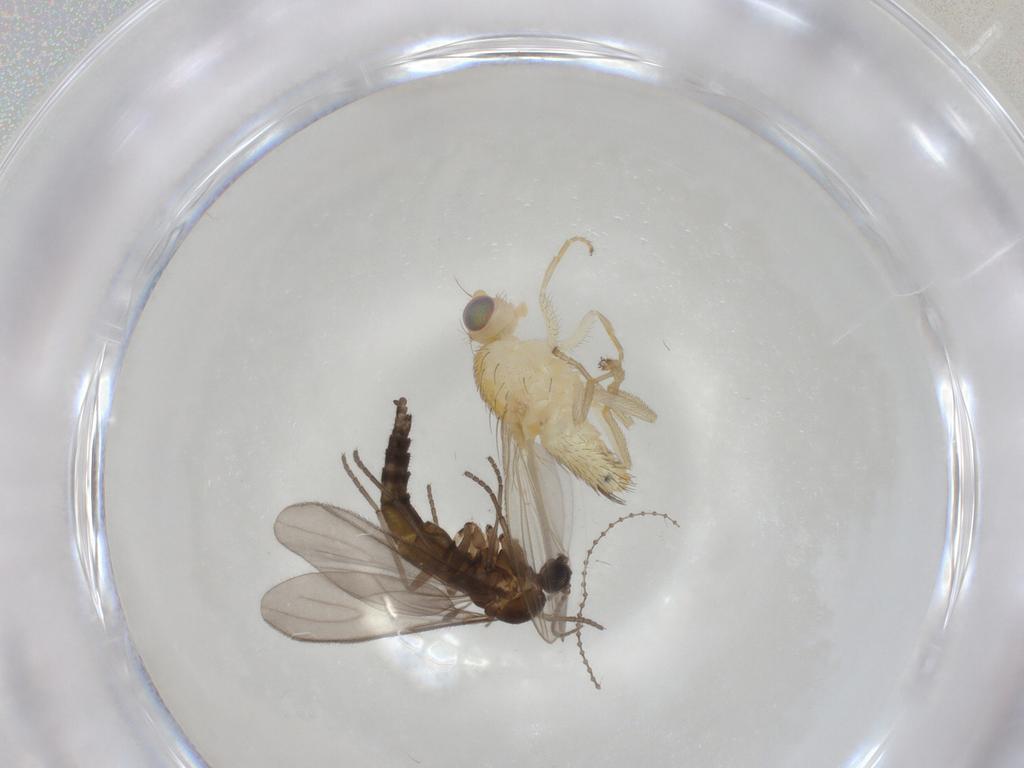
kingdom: Animalia
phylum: Arthropoda
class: Insecta
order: Diptera
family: Chyromyidae
